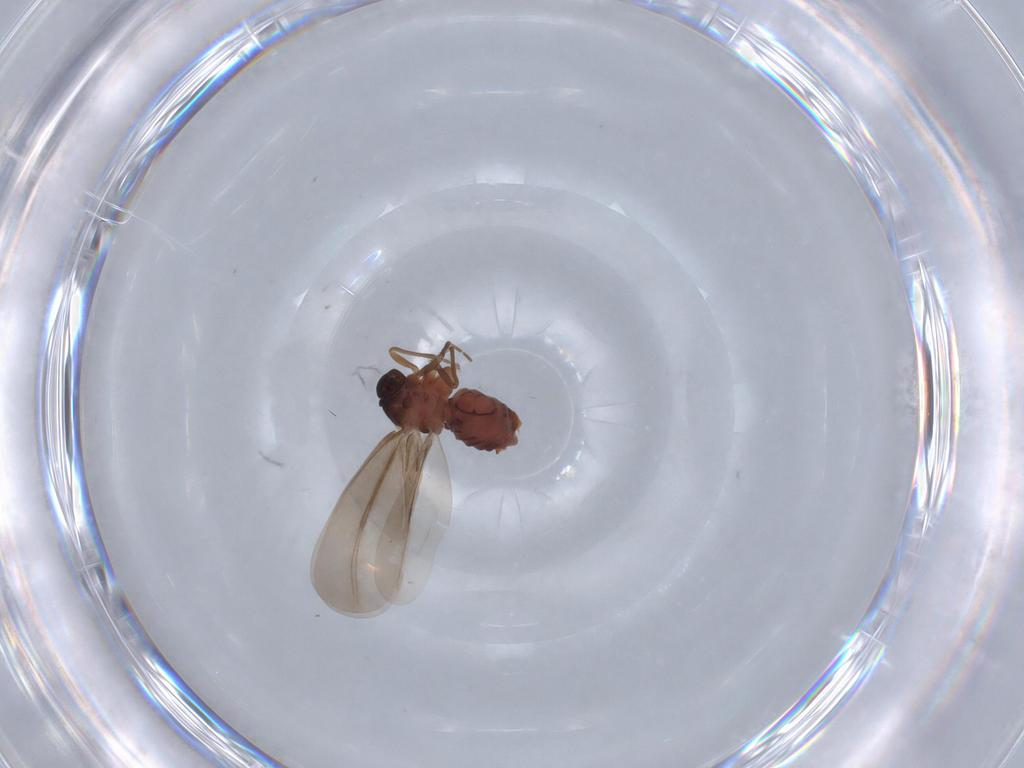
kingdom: Animalia
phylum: Arthropoda
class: Insecta
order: Hemiptera
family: Aleyrodidae
